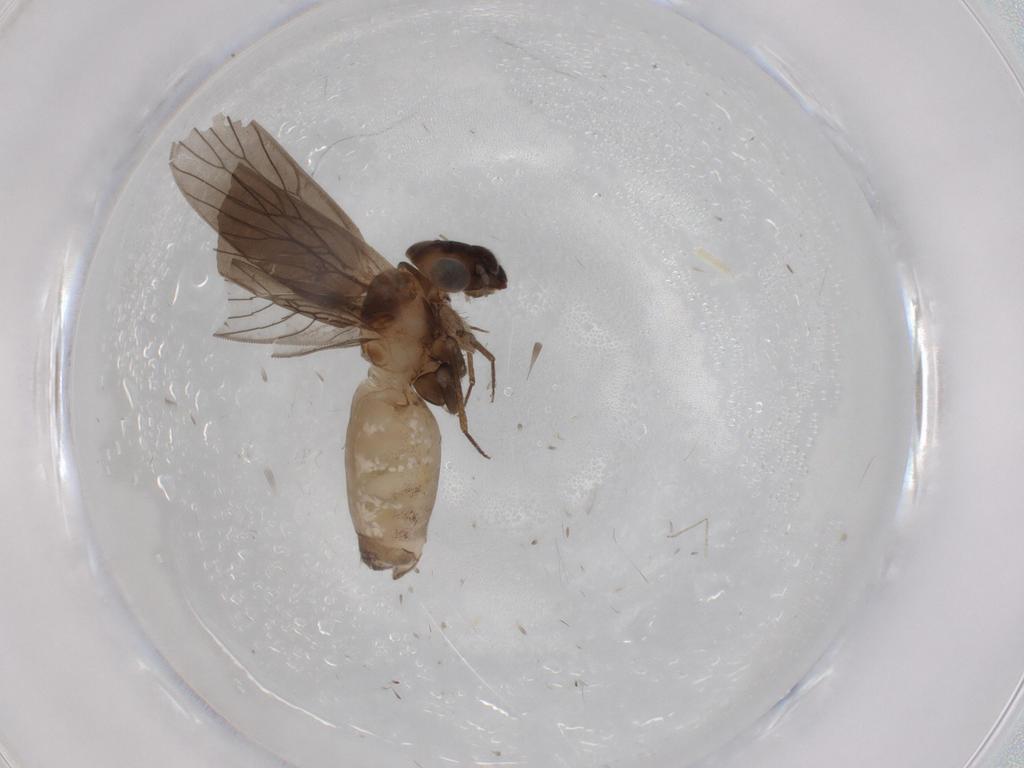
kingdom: Animalia
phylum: Arthropoda
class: Insecta
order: Psocodea
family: Lepidopsocidae
